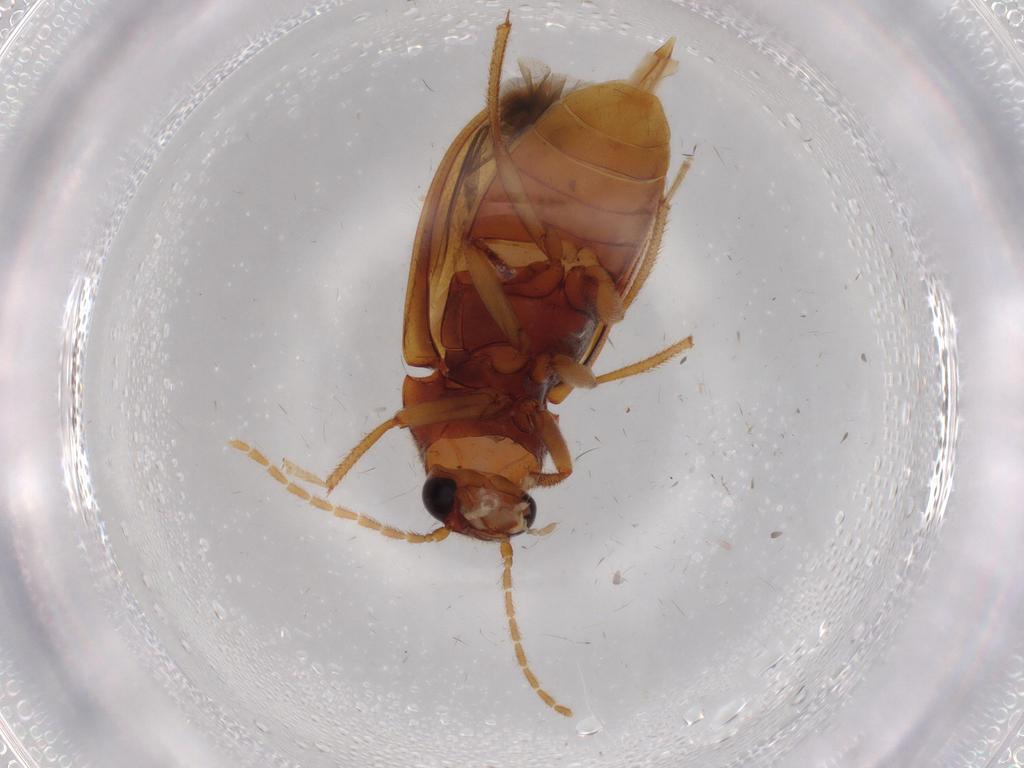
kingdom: Animalia
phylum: Arthropoda
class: Insecta
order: Coleoptera
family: Ptilodactylidae
